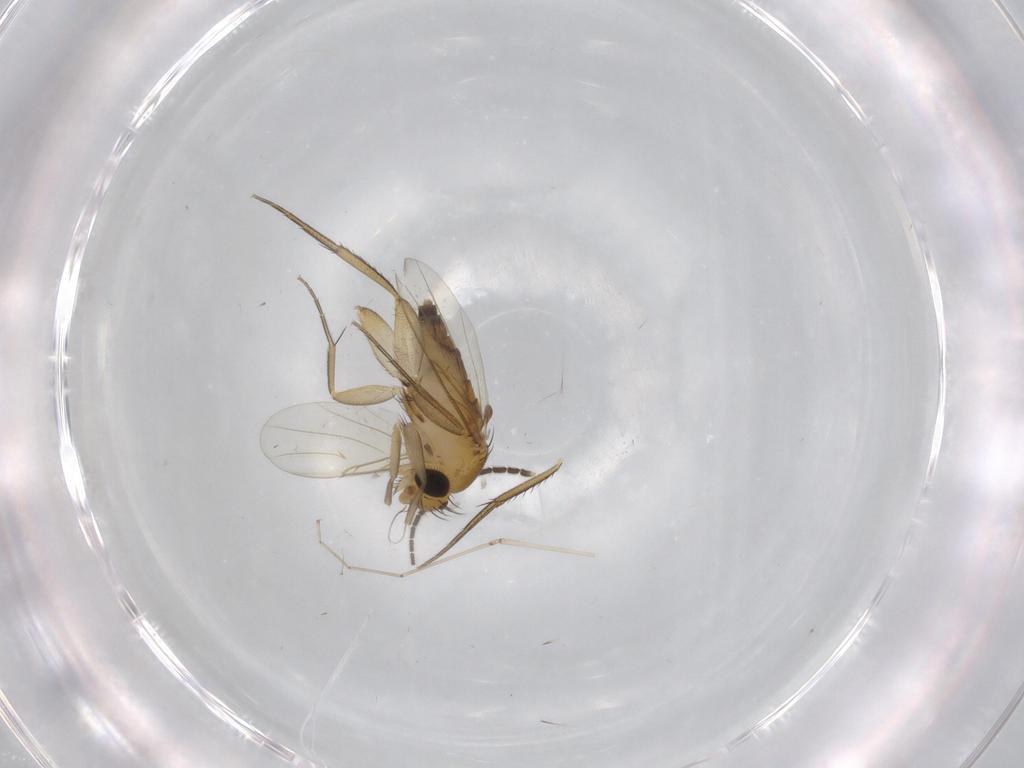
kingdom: Animalia
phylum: Arthropoda
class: Insecta
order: Diptera
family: Phoridae
